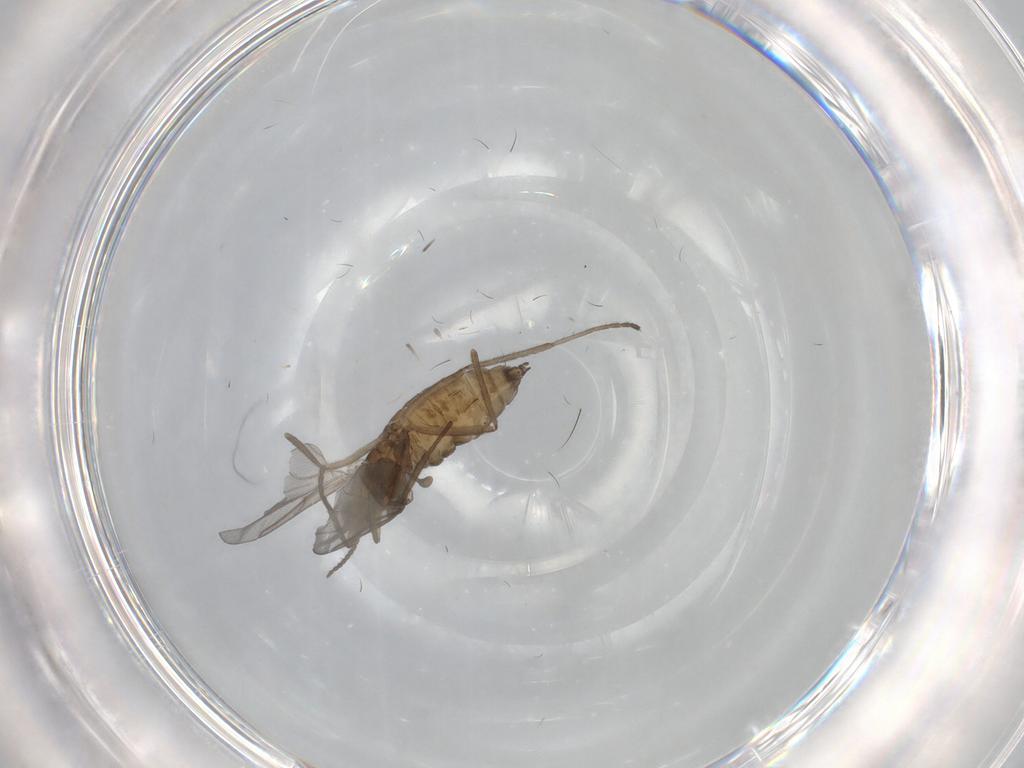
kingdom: Animalia
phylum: Arthropoda
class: Insecta
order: Diptera
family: Cecidomyiidae
